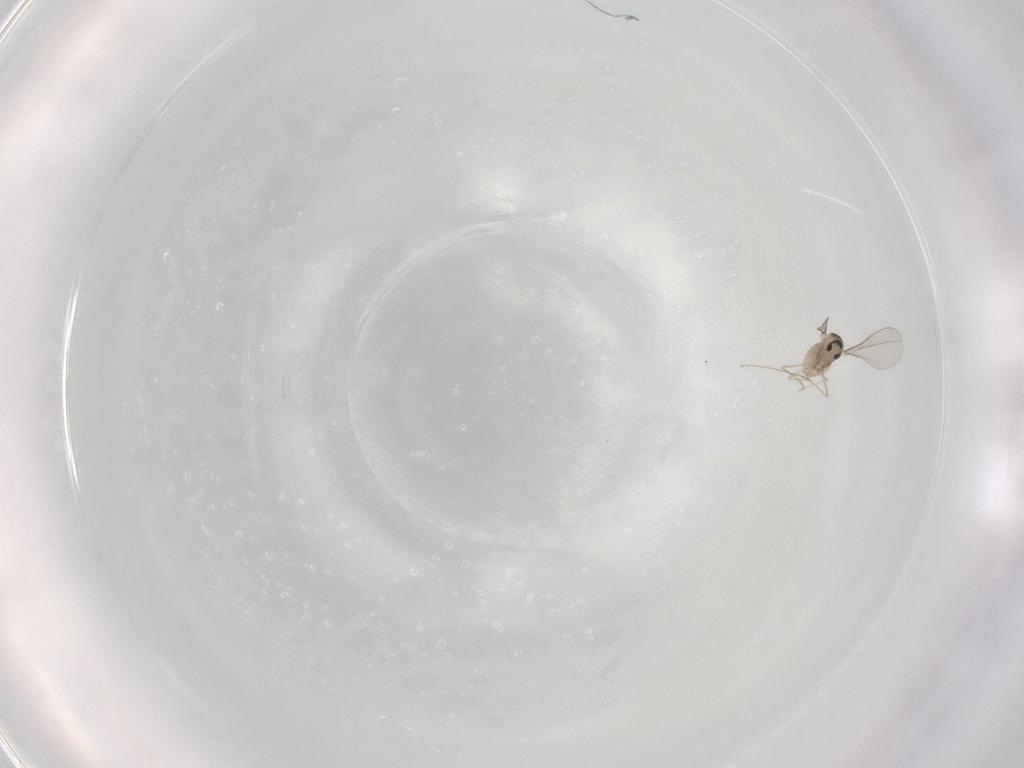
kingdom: Animalia
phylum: Arthropoda
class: Insecta
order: Diptera
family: Cecidomyiidae
